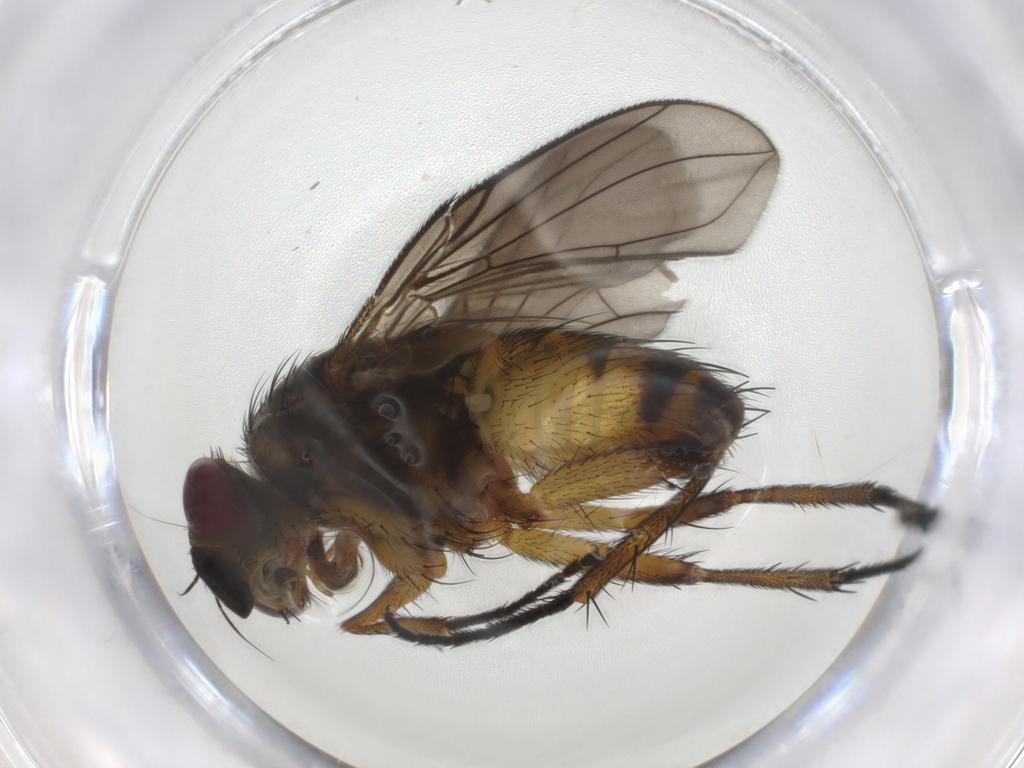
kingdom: Animalia
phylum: Arthropoda
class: Insecta
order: Diptera
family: Tachinidae
